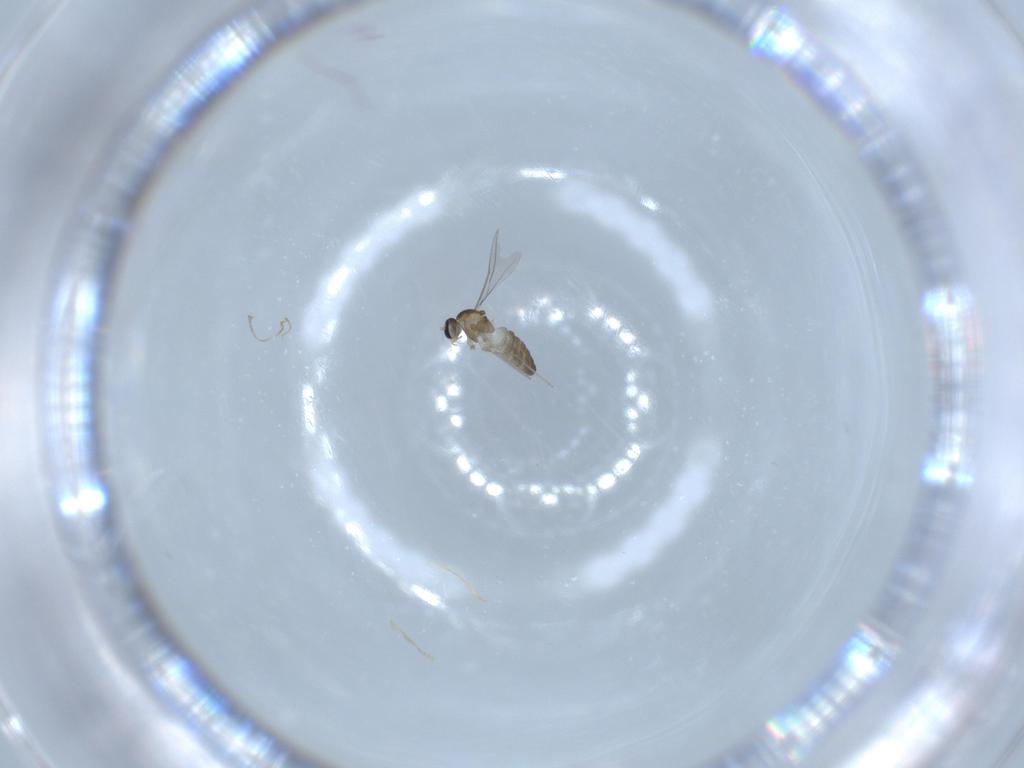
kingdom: Animalia
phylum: Arthropoda
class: Insecta
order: Diptera
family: Cecidomyiidae
